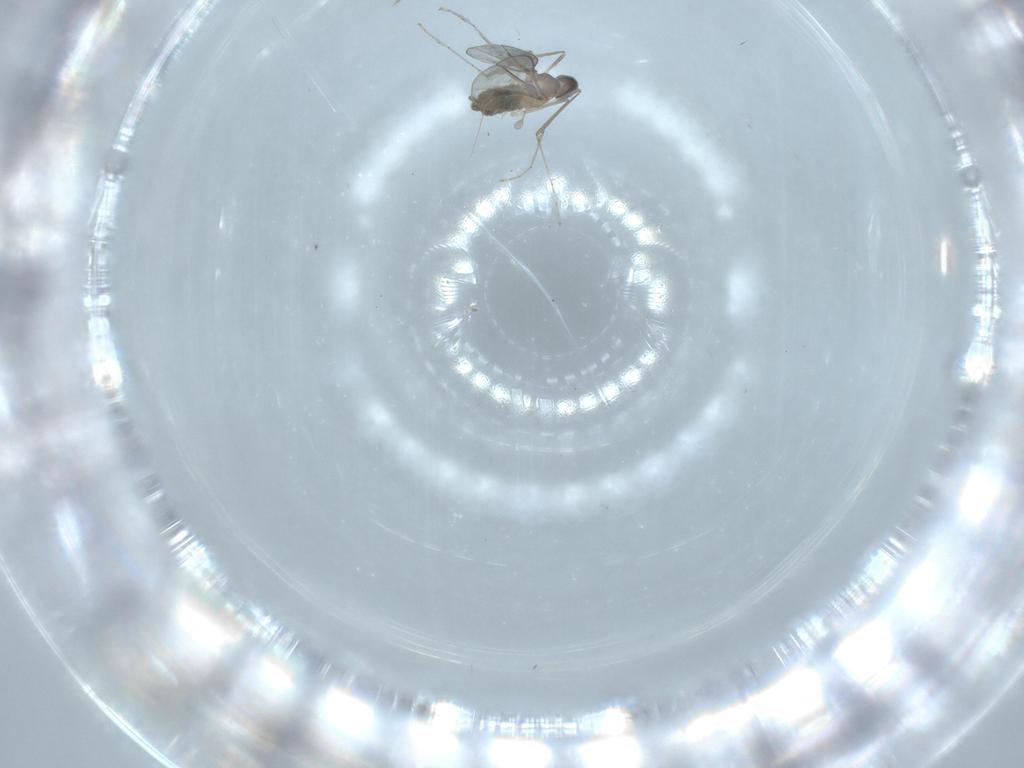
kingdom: Animalia
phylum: Arthropoda
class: Insecta
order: Diptera
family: Cecidomyiidae
